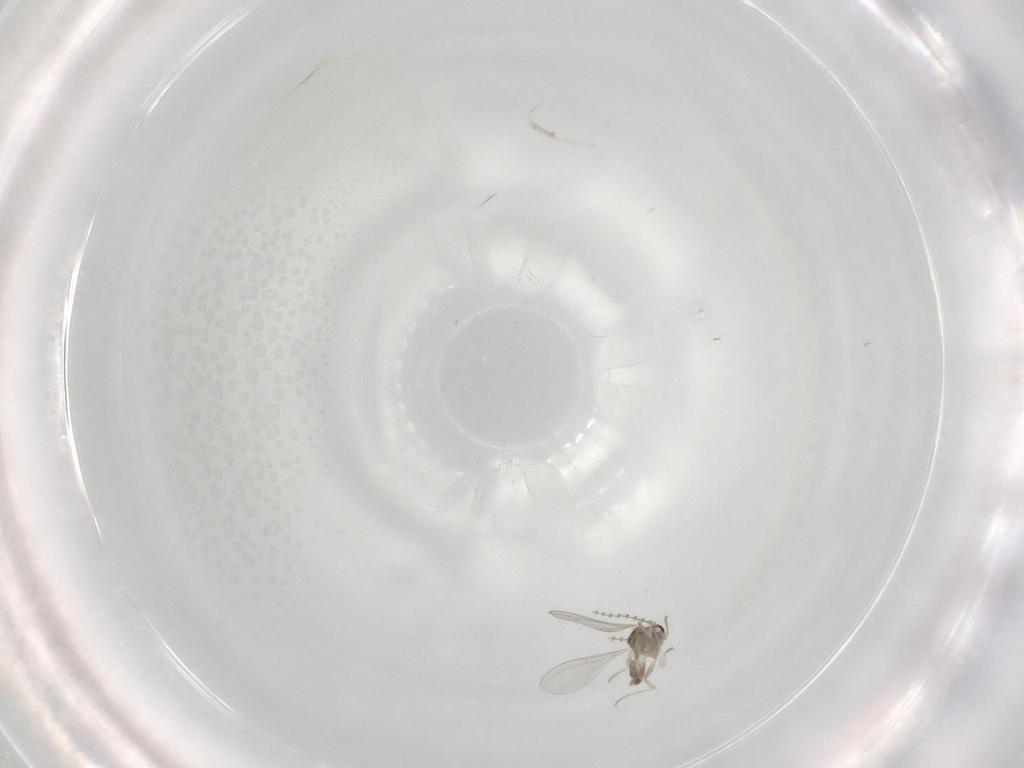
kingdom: Animalia
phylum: Arthropoda
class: Insecta
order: Diptera
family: Cecidomyiidae
